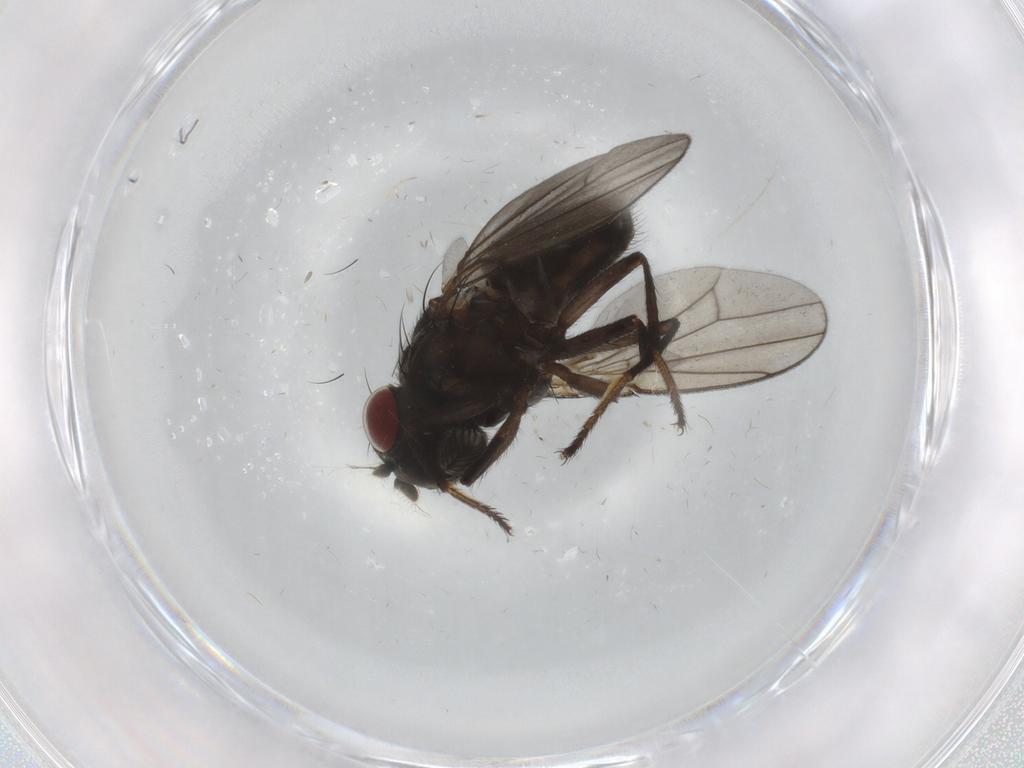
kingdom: Animalia
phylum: Arthropoda
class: Insecta
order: Diptera
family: Ephydridae
